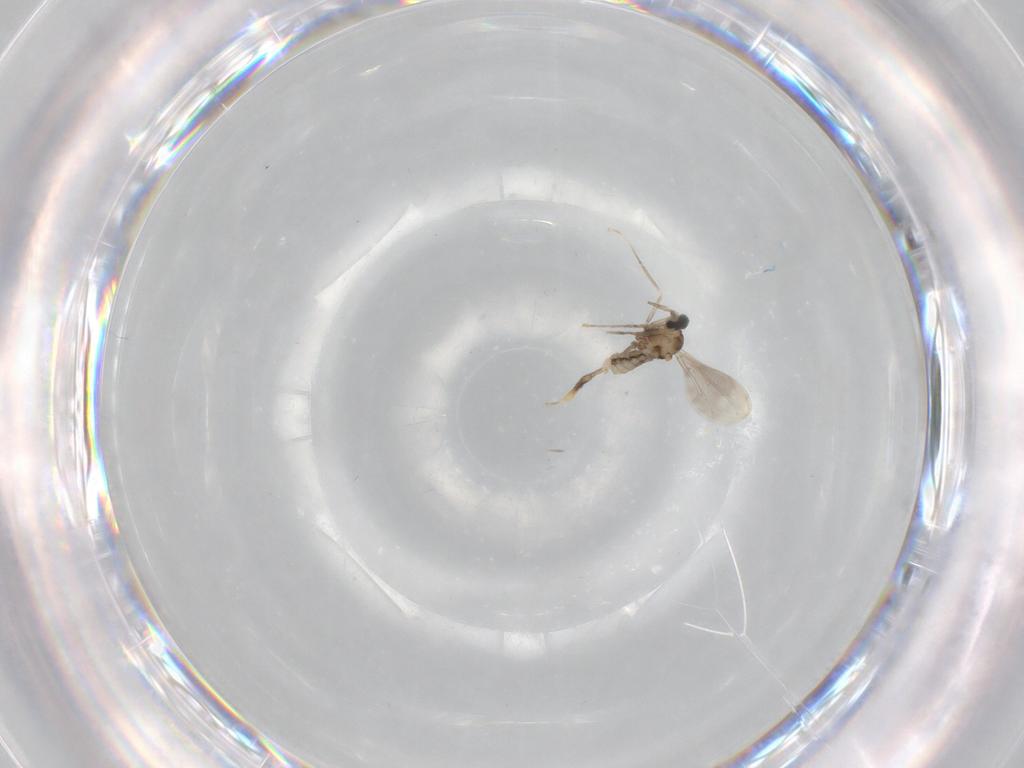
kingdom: Animalia
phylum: Arthropoda
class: Insecta
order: Diptera
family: Cecidomyiidae
